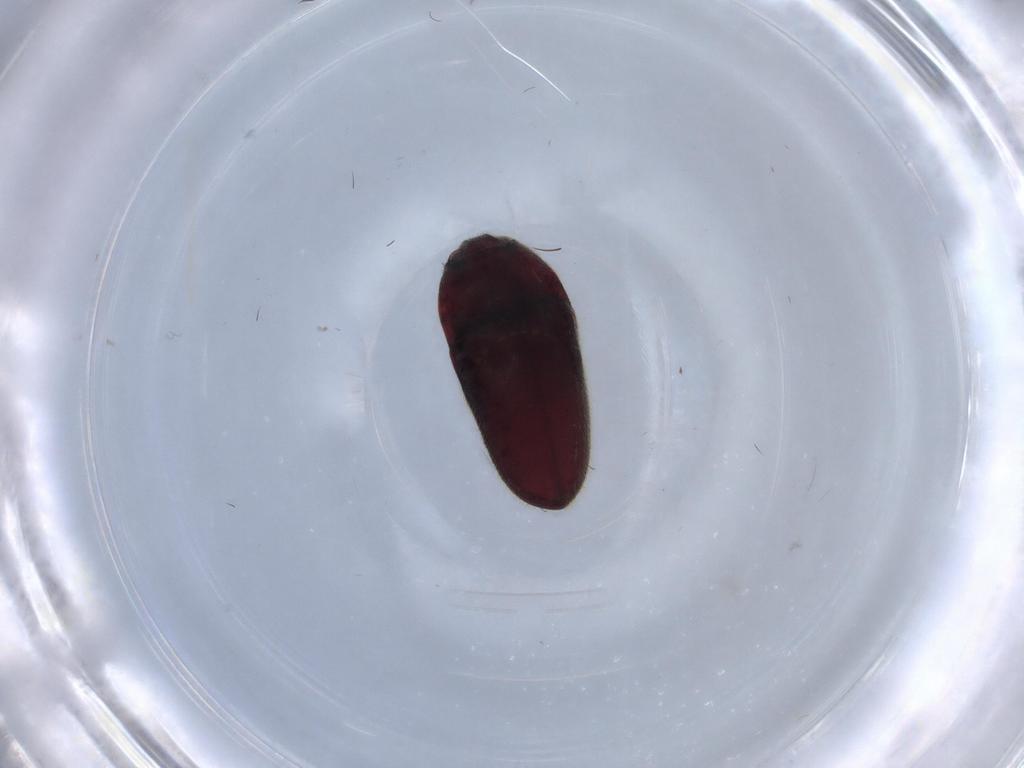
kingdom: Animalia
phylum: Arthropoda
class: Insecta
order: Coleoptera
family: Throscidae
